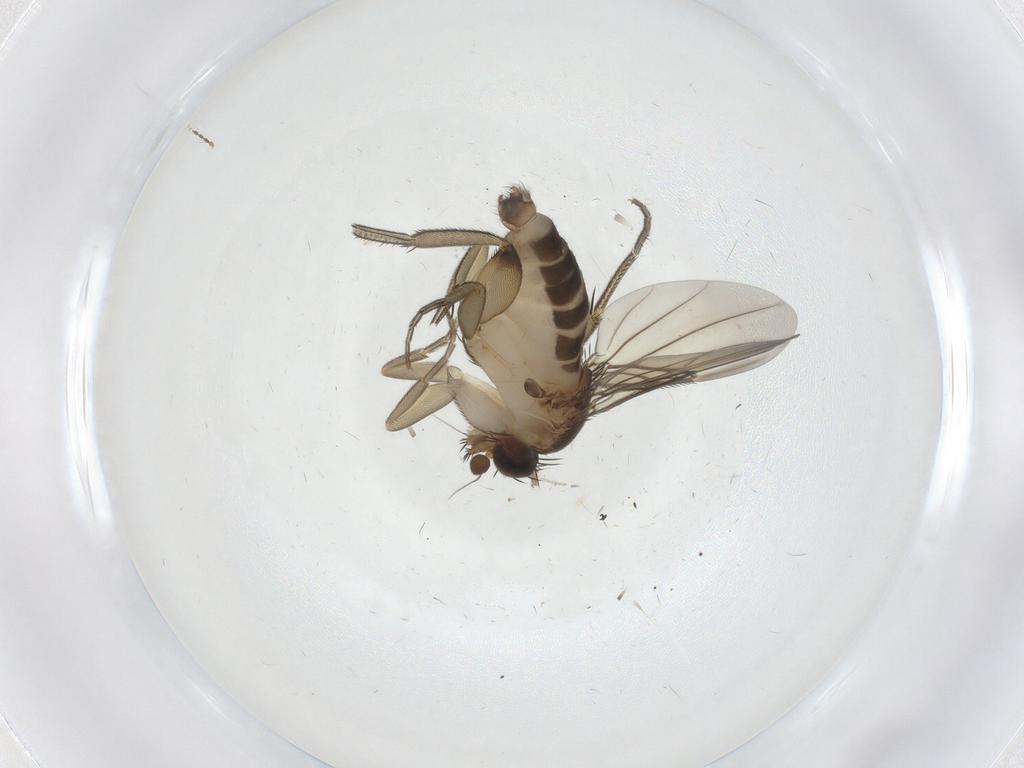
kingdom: Animalia
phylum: Arthropoda
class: Insecta
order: Diptera
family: Phoridae
